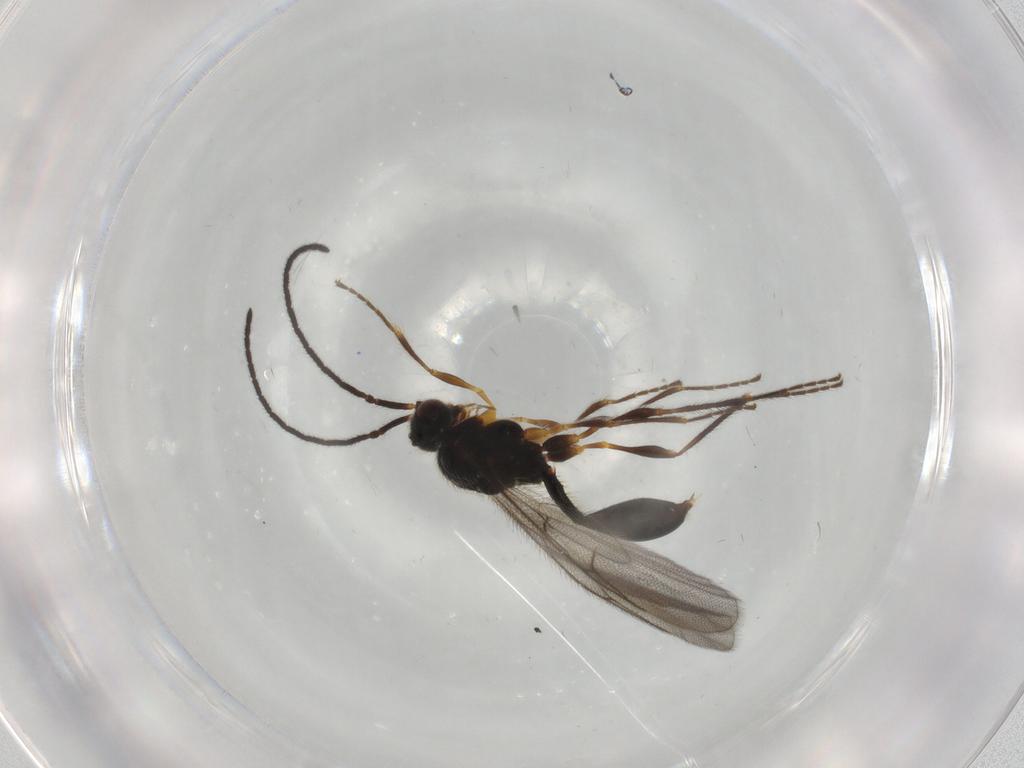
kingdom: Animalia
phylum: Arthropoda
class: Insecta
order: Hymenoptera
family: Diapriidae
